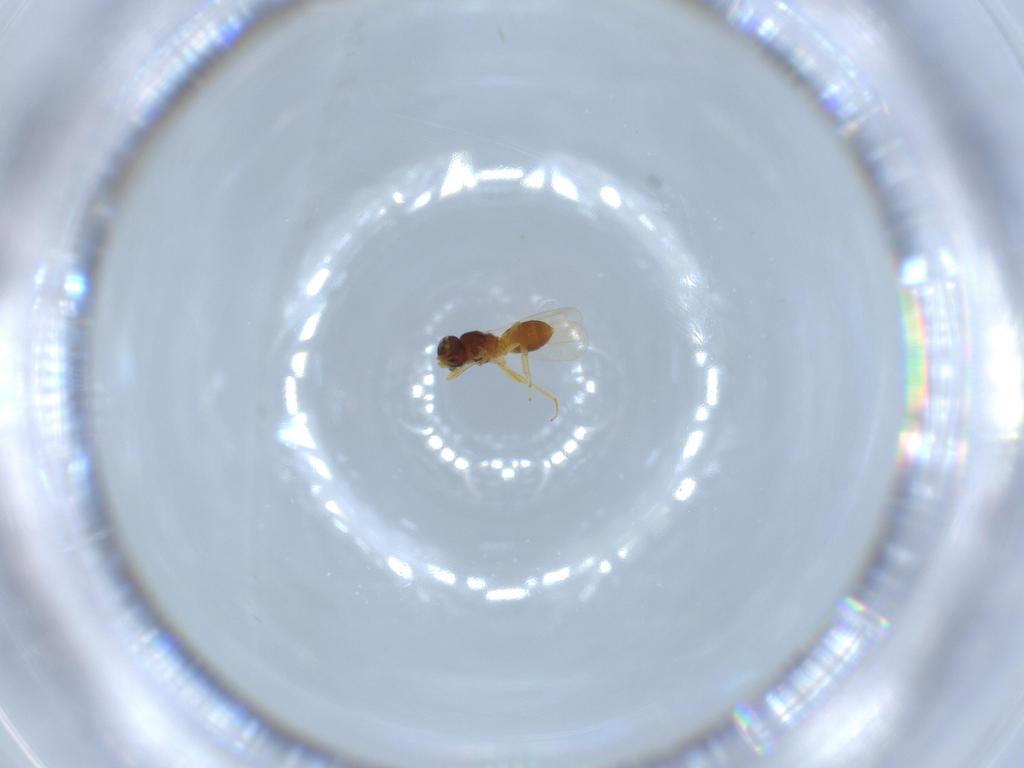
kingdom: Animalia
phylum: Arthropoda
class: Insecta
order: Hymenoptera
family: Platygastridae
